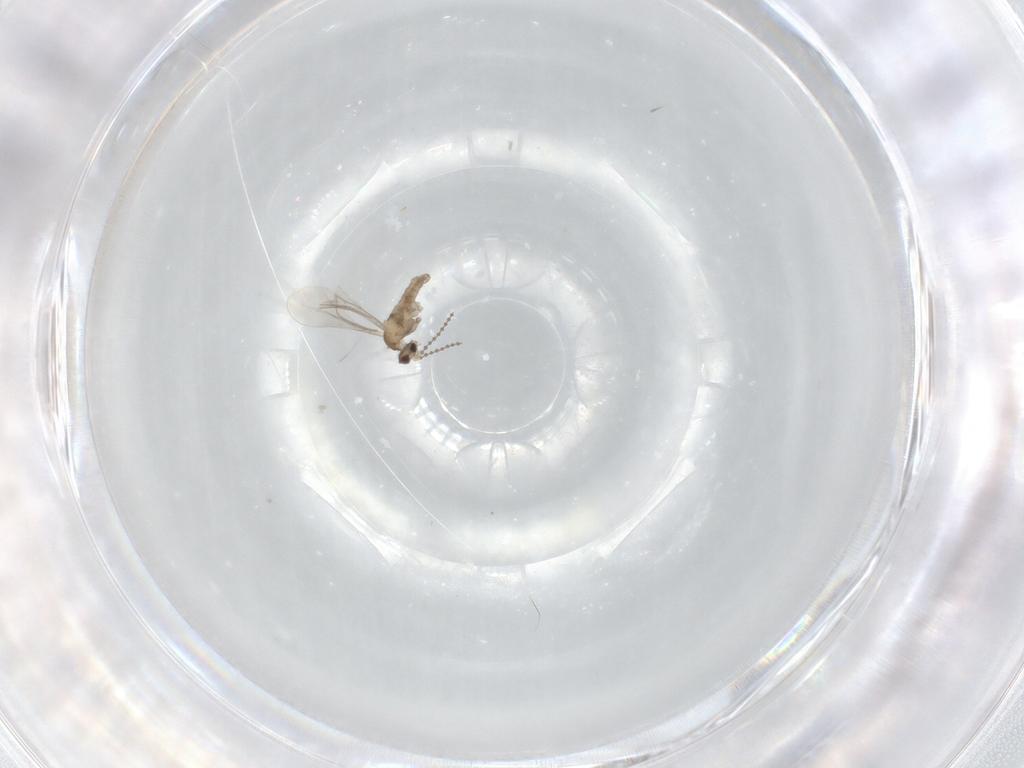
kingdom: Animalia
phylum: Arthropoda
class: Insecta
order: Diptera
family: Cecidomyiidae
